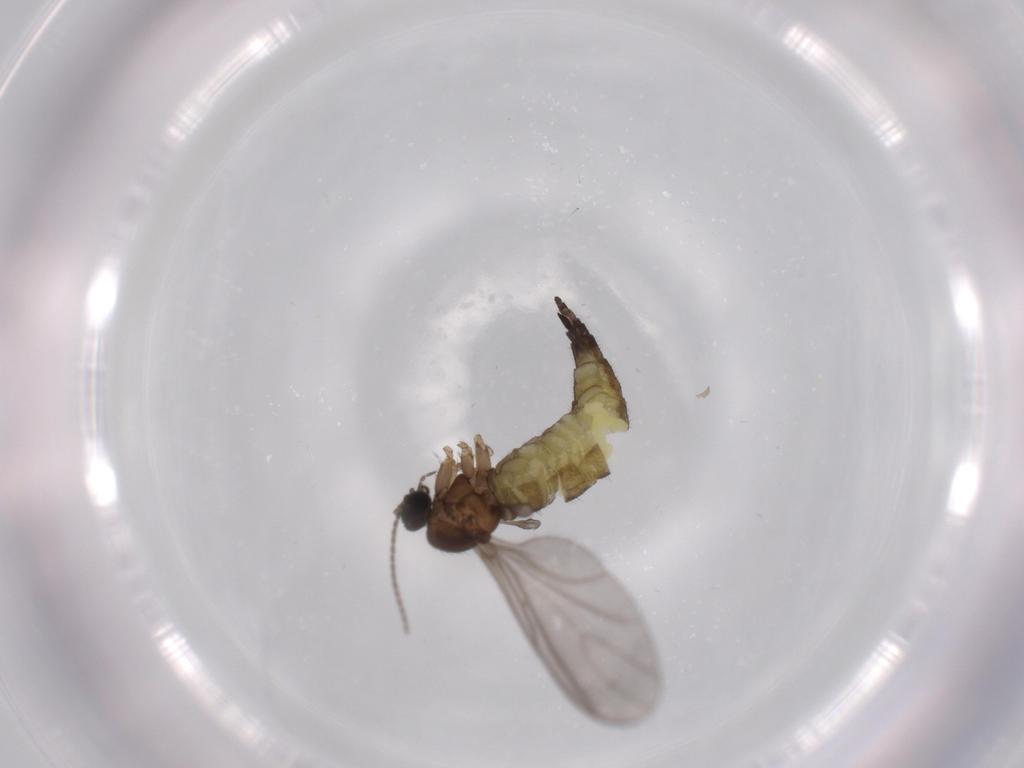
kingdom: Animalia
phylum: Arthropoda
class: Insecta
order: Diptera
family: Sciaridae
